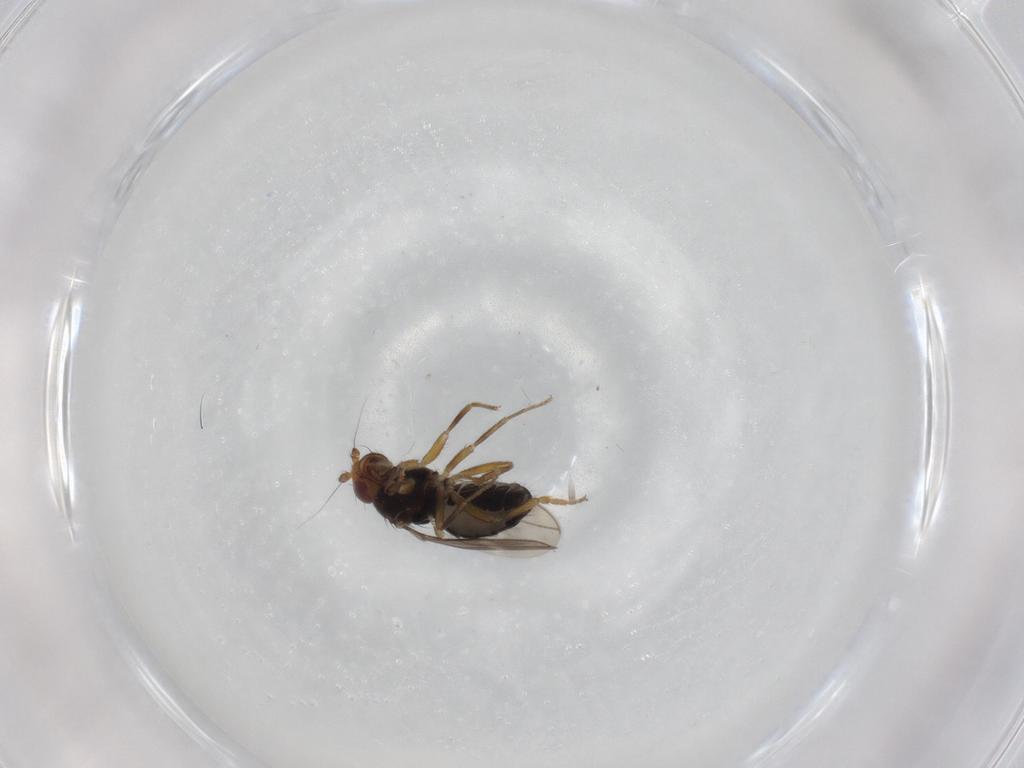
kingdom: Animalia
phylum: Arthropoda
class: Insecta
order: Diptera
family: Ceratopogonidae
